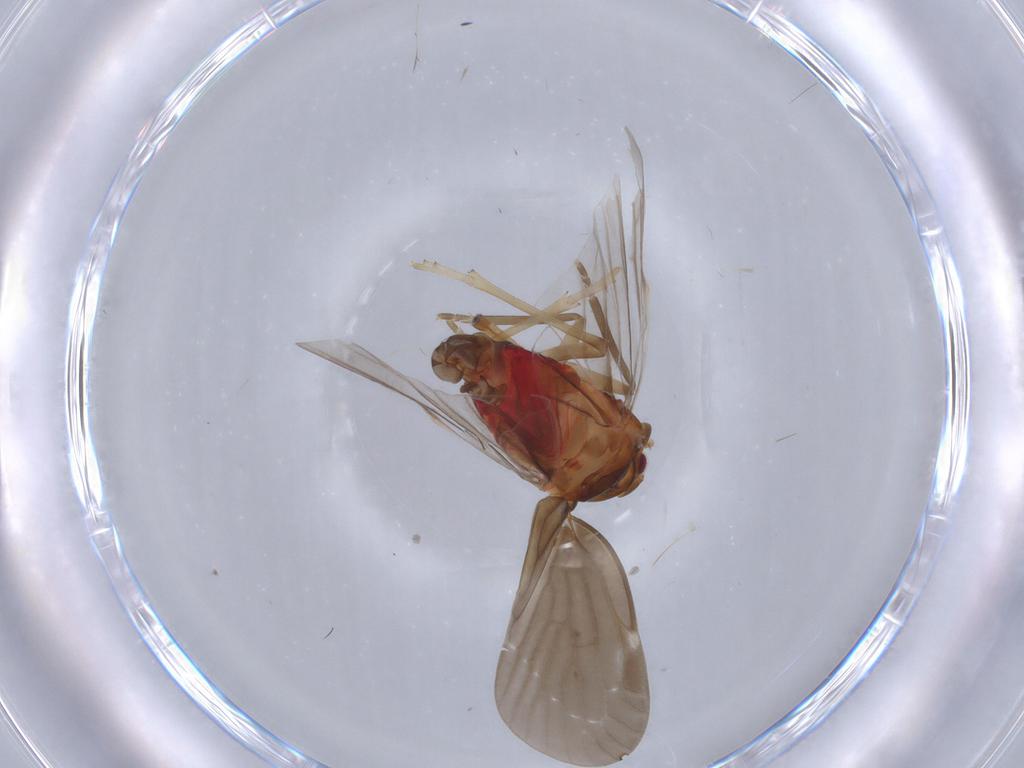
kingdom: Animalia
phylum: Arthropoda
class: Insecta
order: Hemiptera
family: Derbidae
